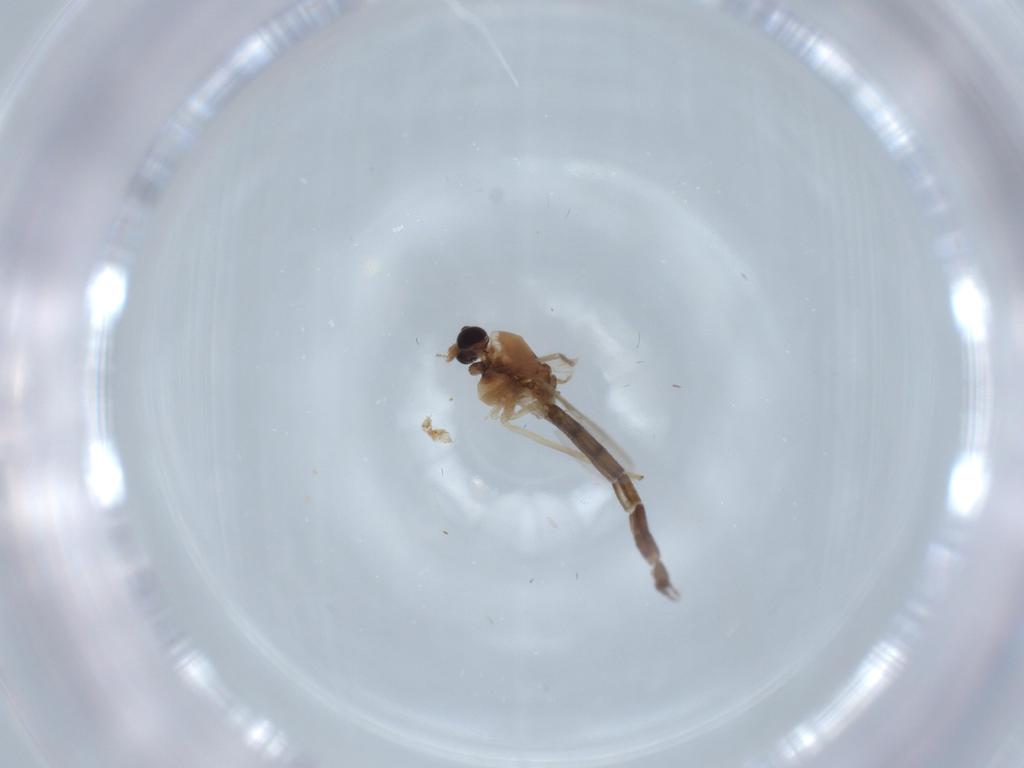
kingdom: Animalia
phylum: Arthropoda
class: Insecta
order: Diptera
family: Chironomidae
